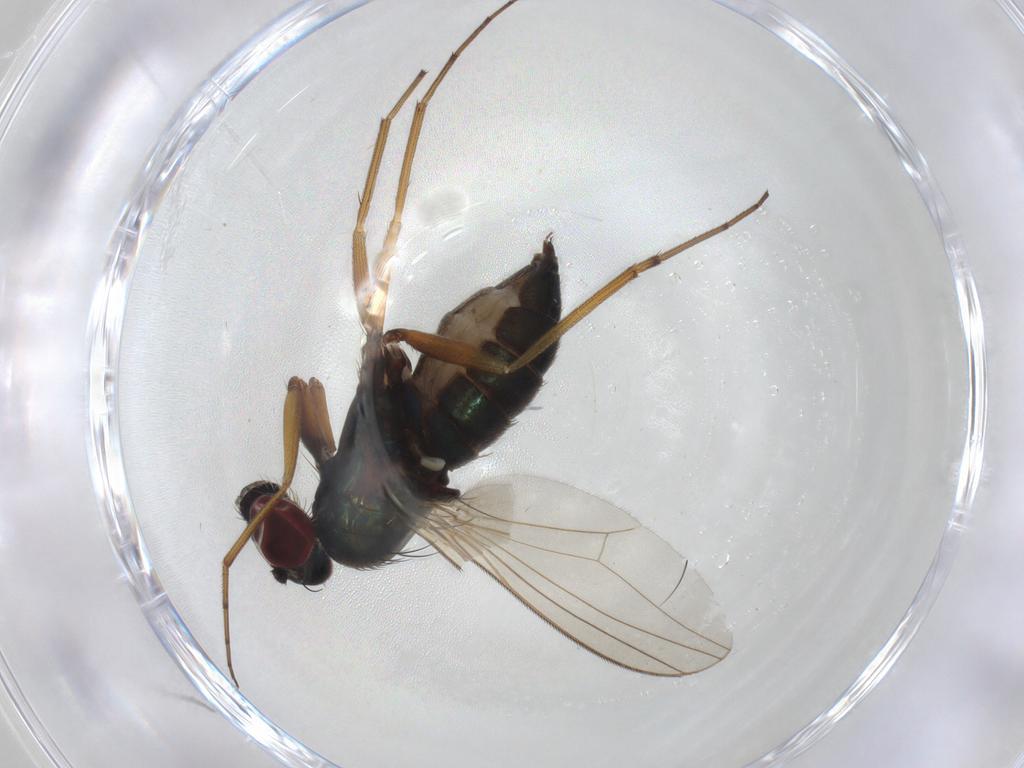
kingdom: Animalia
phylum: Arthropoda
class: Insecta
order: Diptera
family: Dolichopodidae
